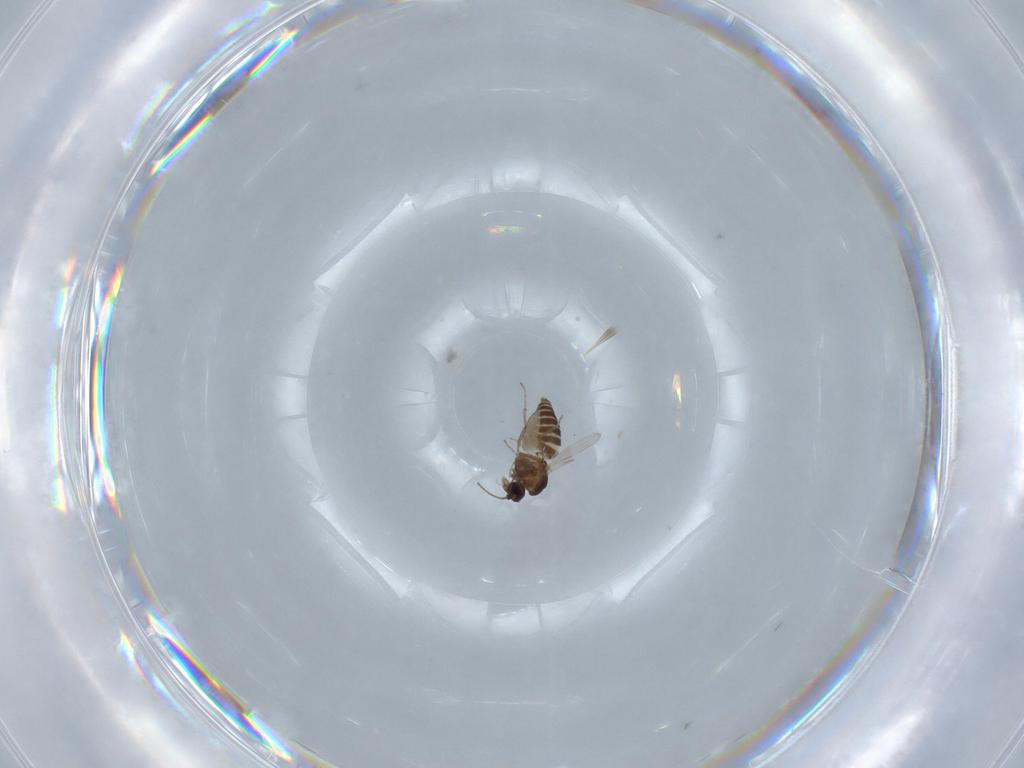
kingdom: Animalia
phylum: Arthropoda
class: Insecta
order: Diptera
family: Ceratopogonidae
